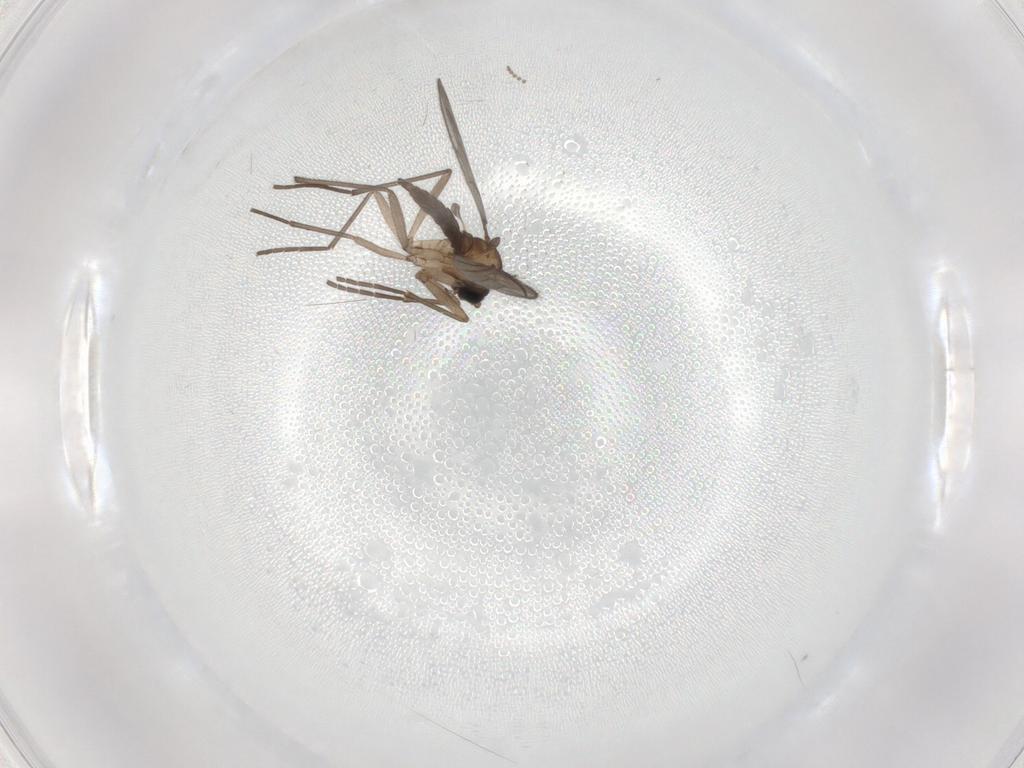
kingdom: Animalia
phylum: Arthropoda
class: Insecta
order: Diptera
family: Sciaridae
